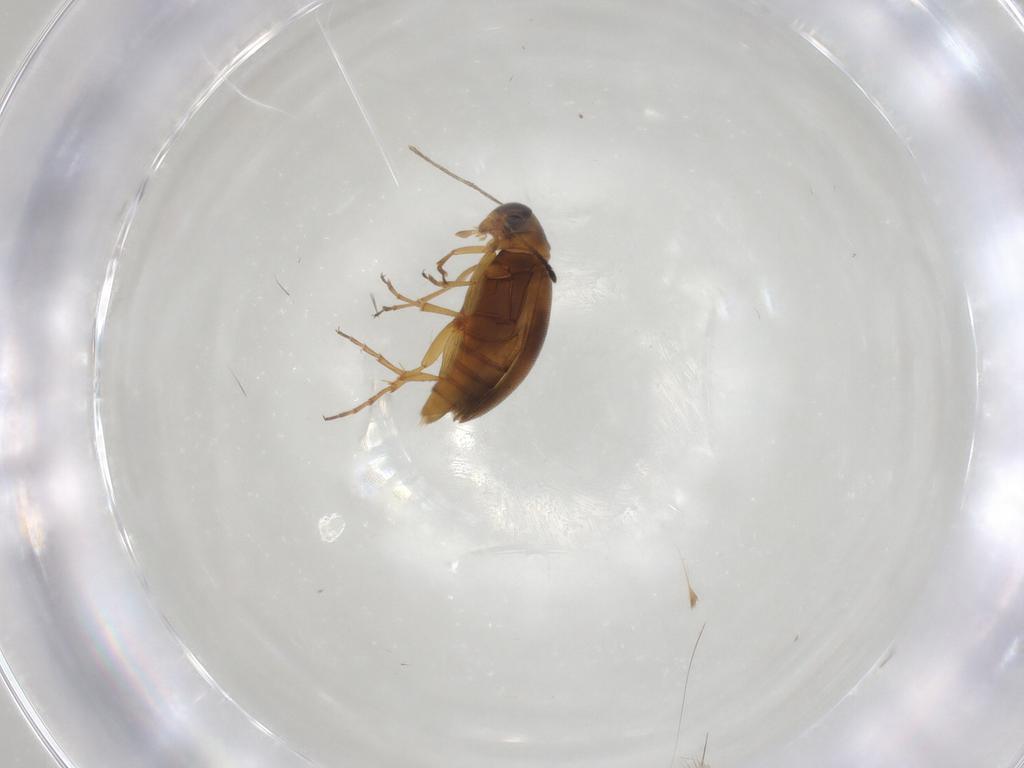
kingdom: Animalia
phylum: Arthropoda
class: Insecta
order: Coleoptera
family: Scraptiidae
